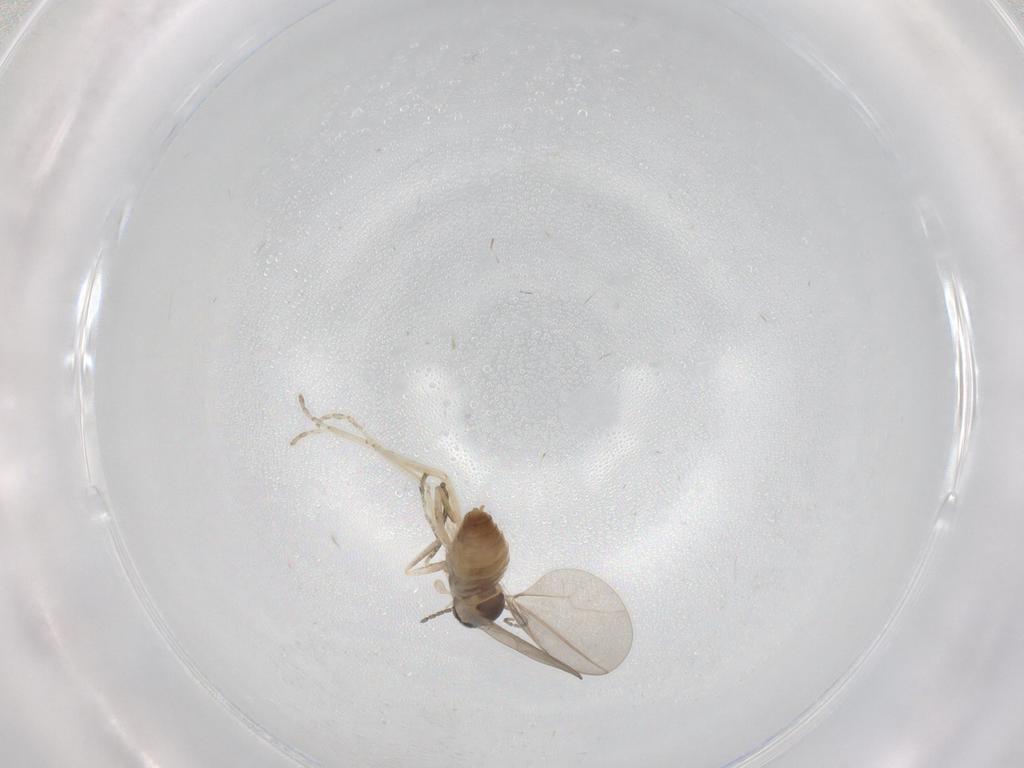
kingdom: Animalia
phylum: Arthropoda
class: Insecta
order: Diptera
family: Cecidomyiidae
